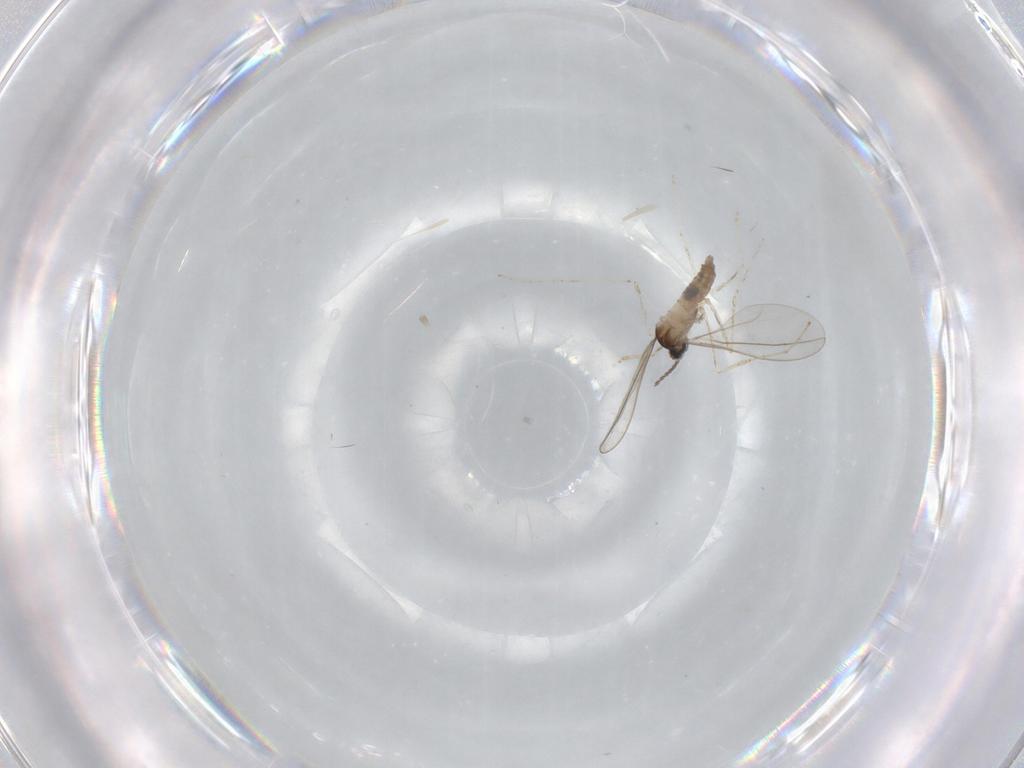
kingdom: Animalia
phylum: Arthropoda
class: Insecta
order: Diptera
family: Cecidomyiidae
